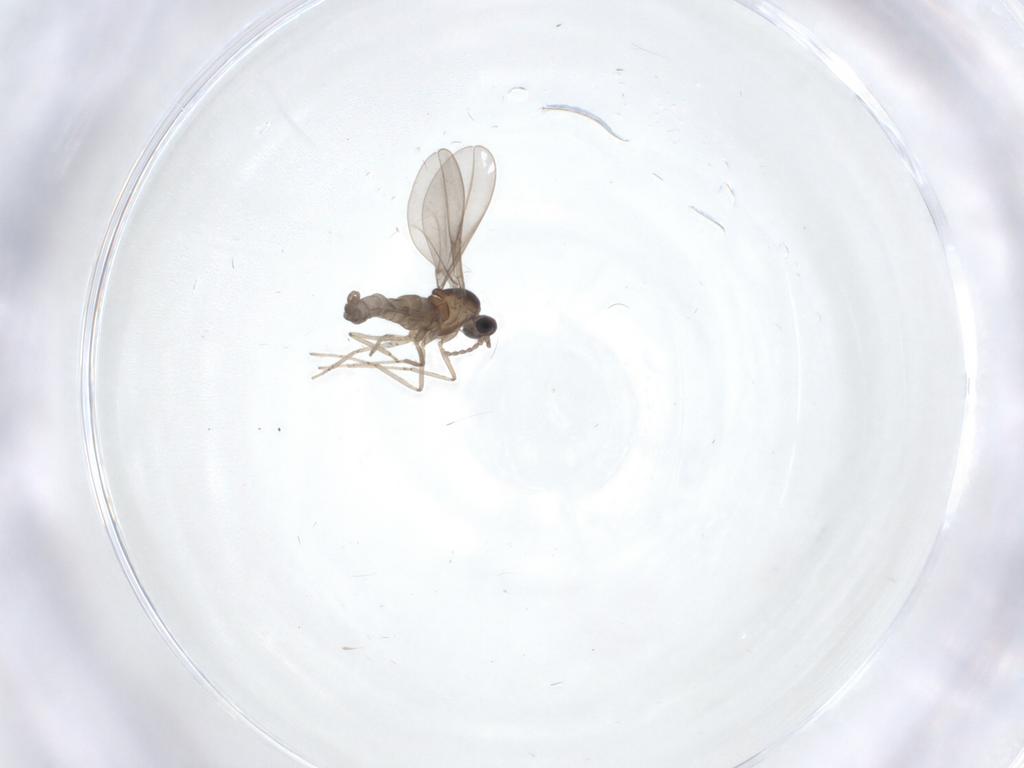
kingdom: Animalia
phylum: Arthropoda
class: Insecta
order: Diptera
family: Cecidomyiidae
